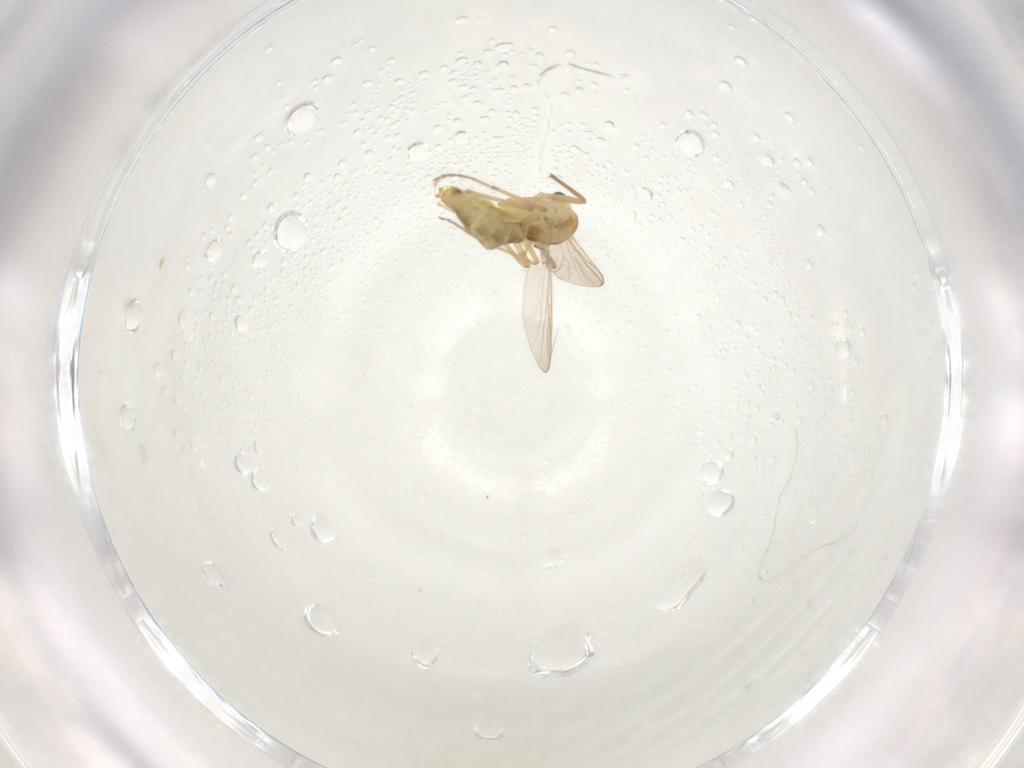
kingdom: Animalia
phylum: Arthropoda
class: Insecta
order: Diptera
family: Chironomidae
